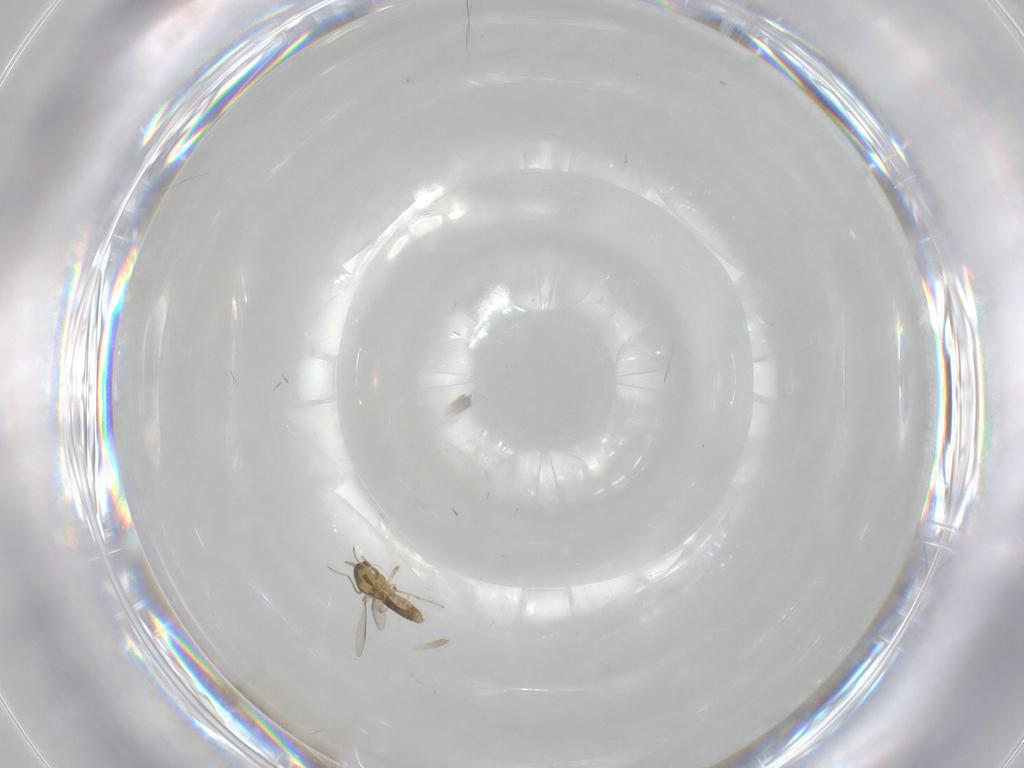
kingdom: Animalia
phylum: Arthropoda
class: Insecta
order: Diptera
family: Chironomidae
